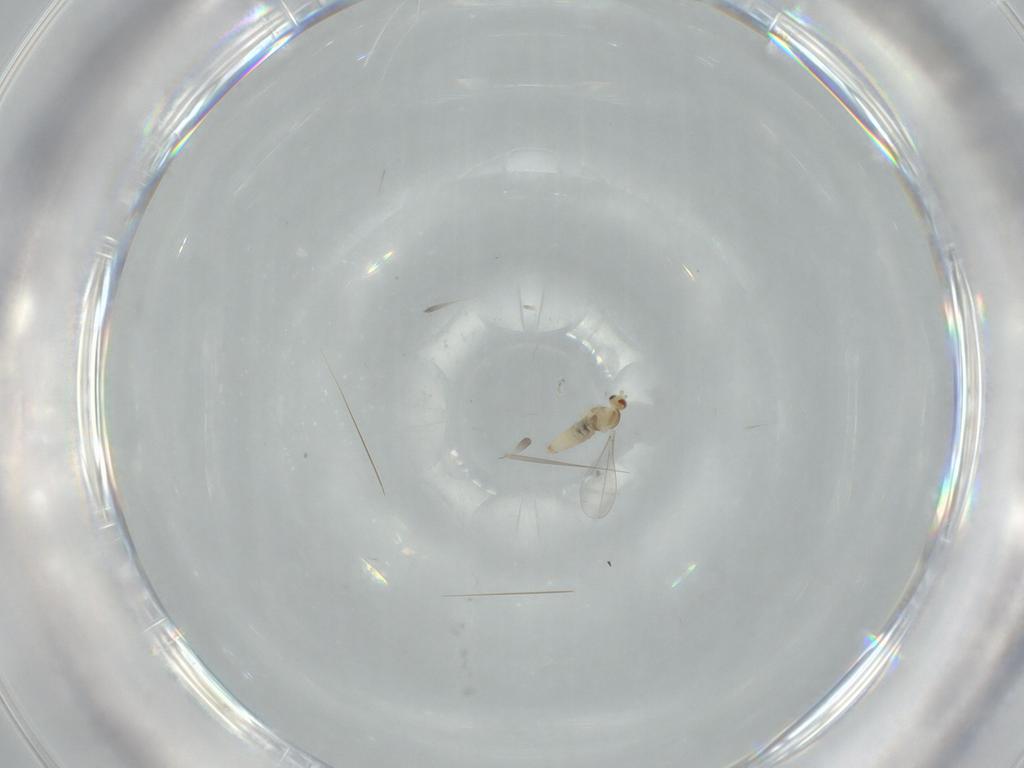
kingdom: Animalia
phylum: Arthropoda
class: Insecta
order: Diptera
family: Cecidomyiidae
